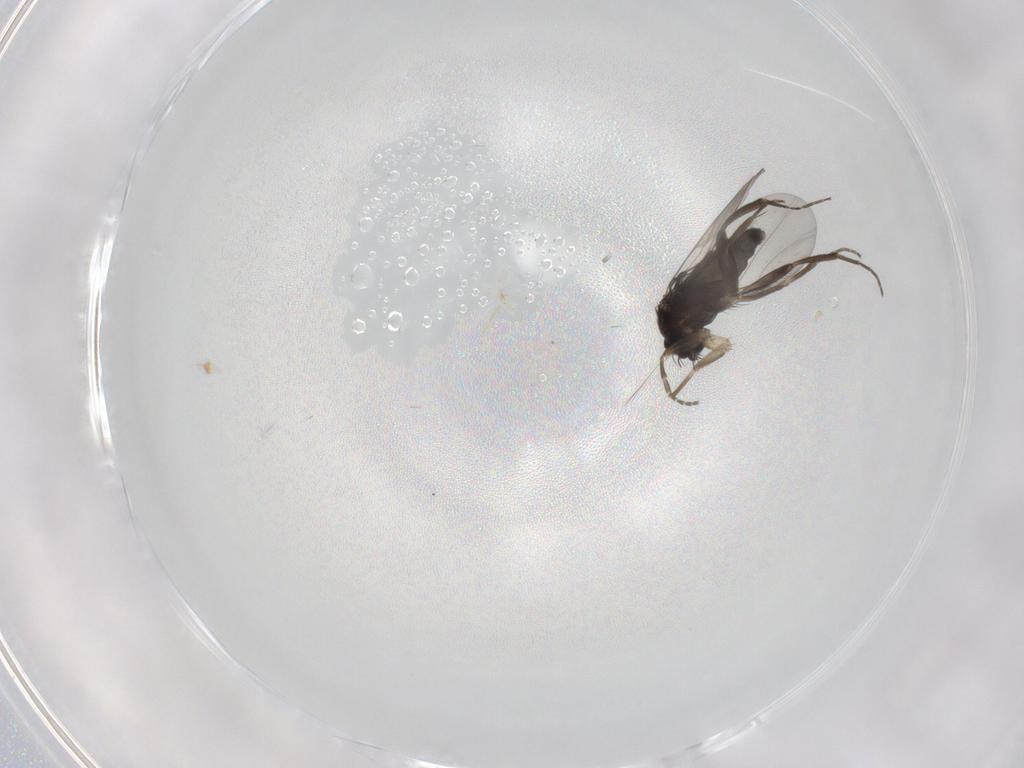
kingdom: Animalia
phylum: Arthropoda
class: Insecta
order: Diptera
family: Phoridae
